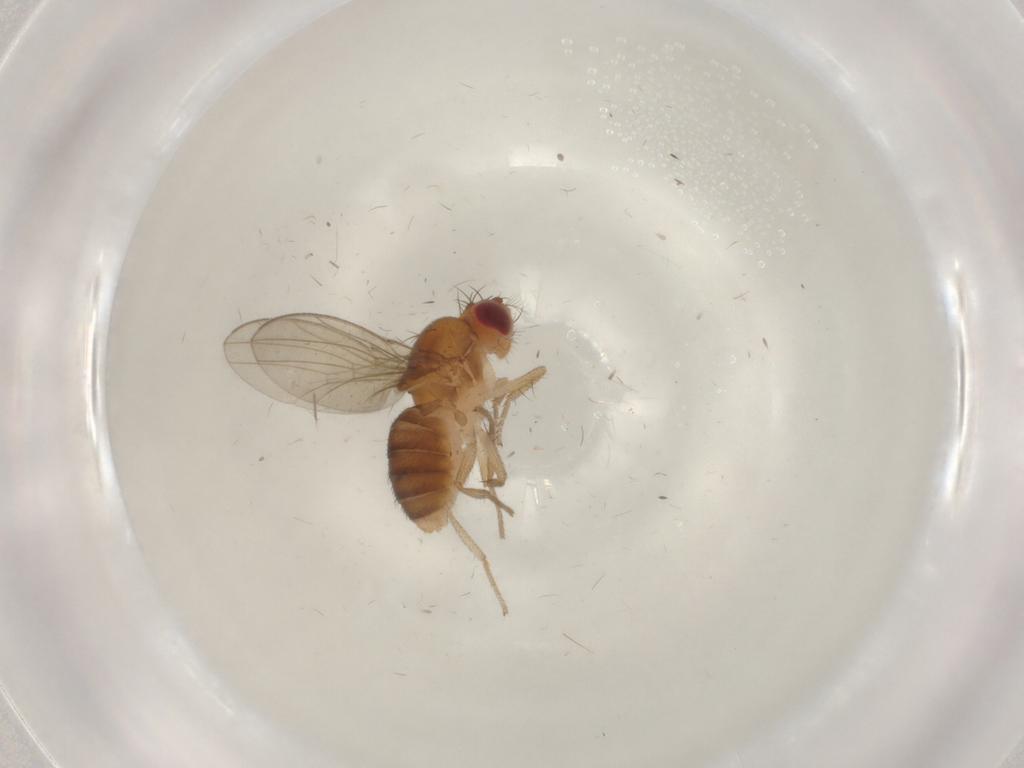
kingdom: Animalia
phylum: Arthropoda
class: Insecta
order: Diptera
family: Drosophilidae
